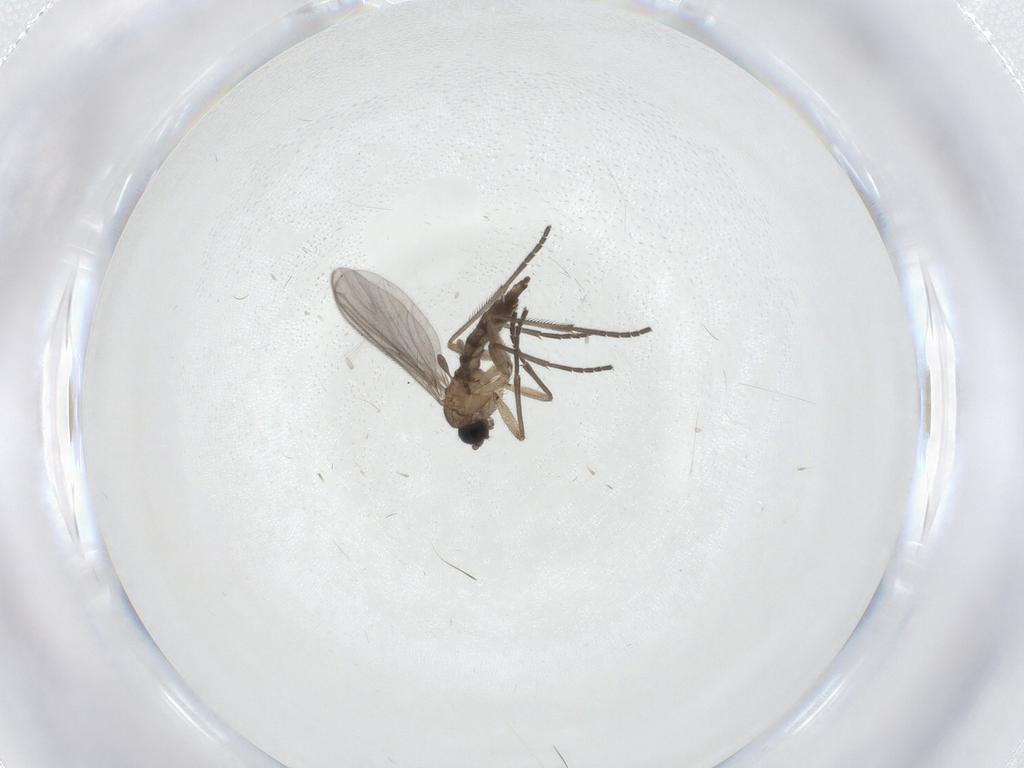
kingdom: Animalia
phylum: Arthropoda
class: Insecta
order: Diptera
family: Sciaridae
